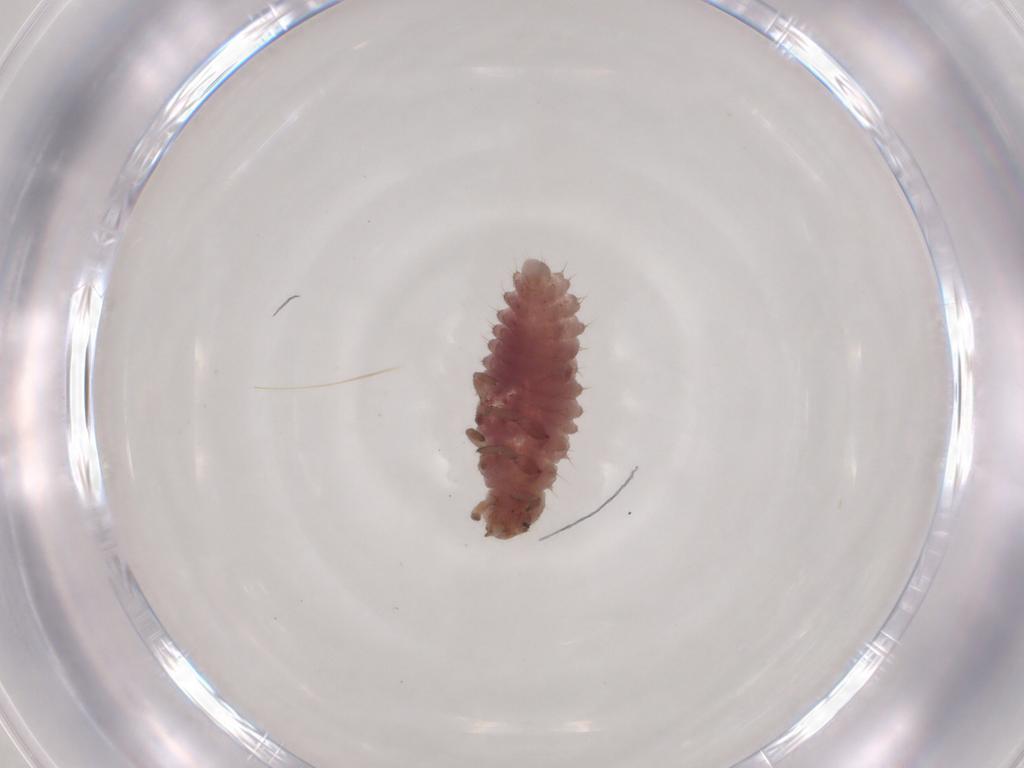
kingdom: Animalia
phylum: Arthropoda
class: Insecta
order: Coleoptera
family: Coccinellidae
